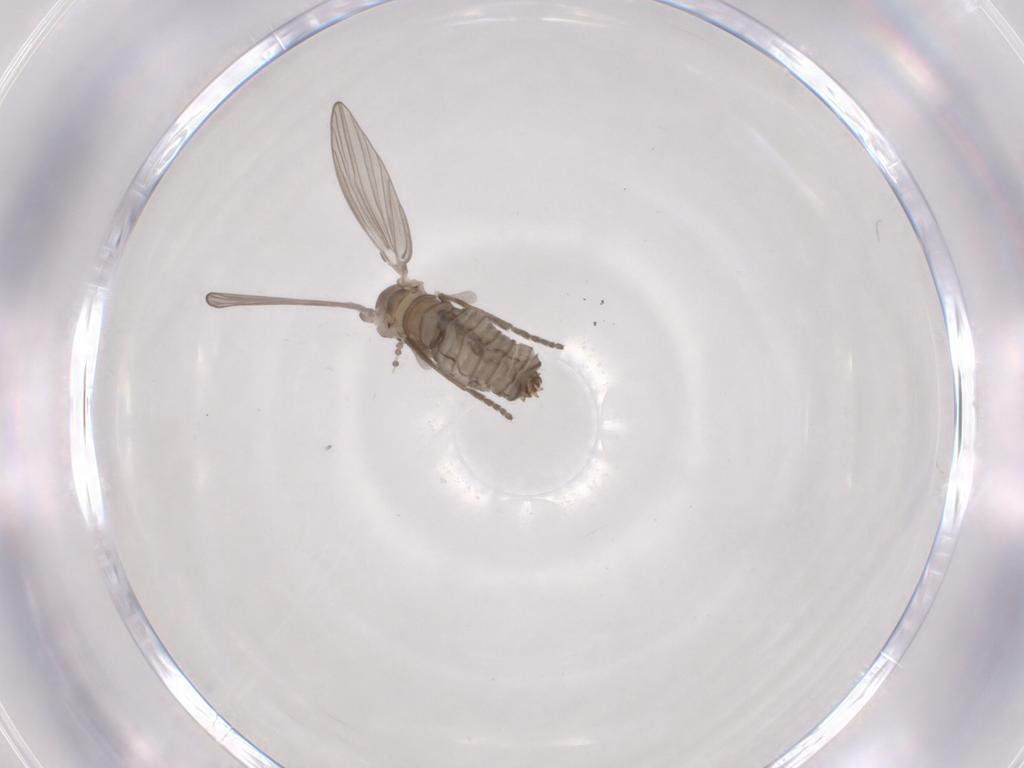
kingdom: Animalia
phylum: Arthropoda
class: Insecta
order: Diptera
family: Psychodidae
